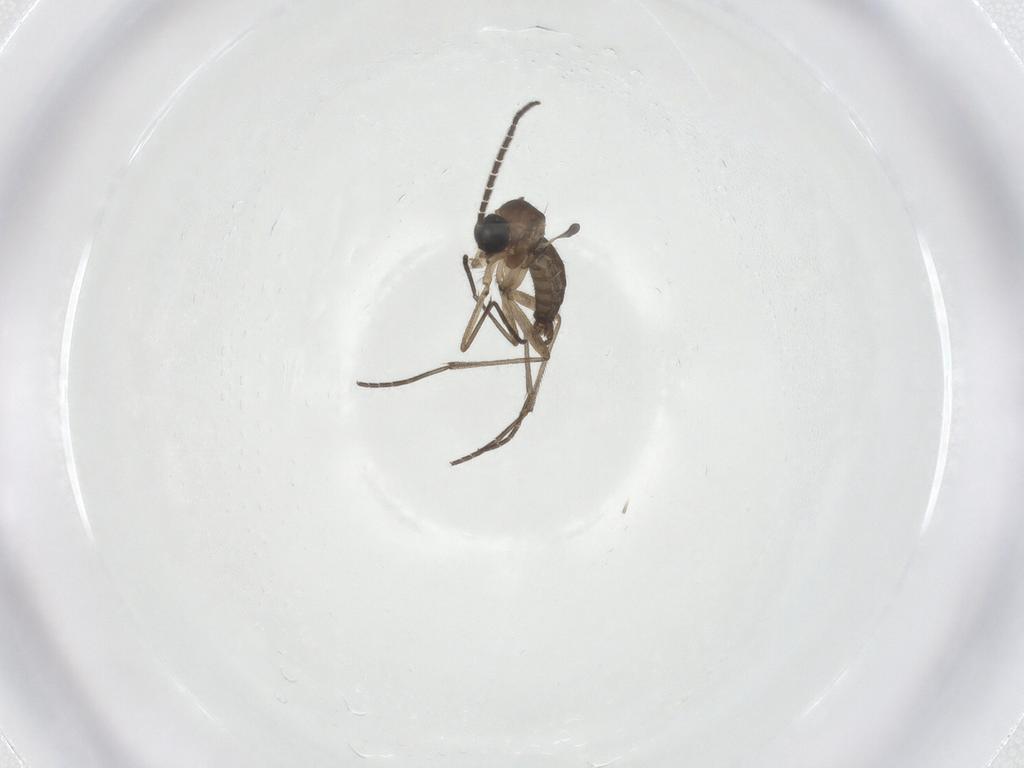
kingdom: Animalia
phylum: Arthropoda
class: Insecta
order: Diptera
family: Sciaridae
